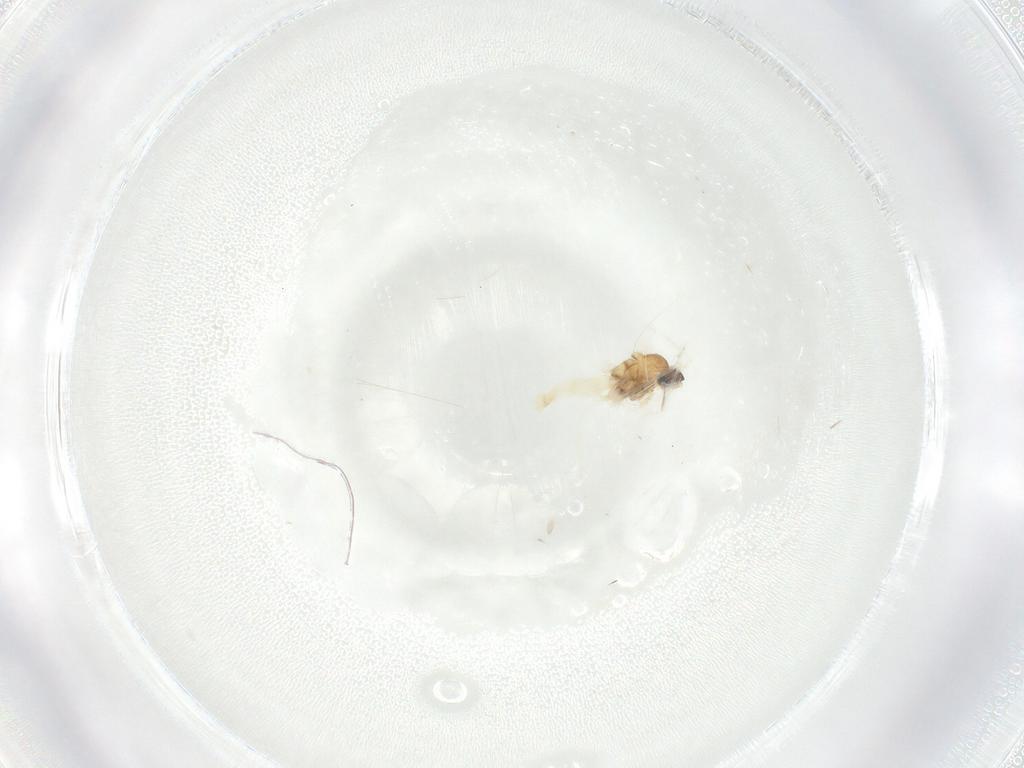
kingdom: Animalia
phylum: Arthropoda
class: Insecta
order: Diptera
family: Cecidomyiidae
